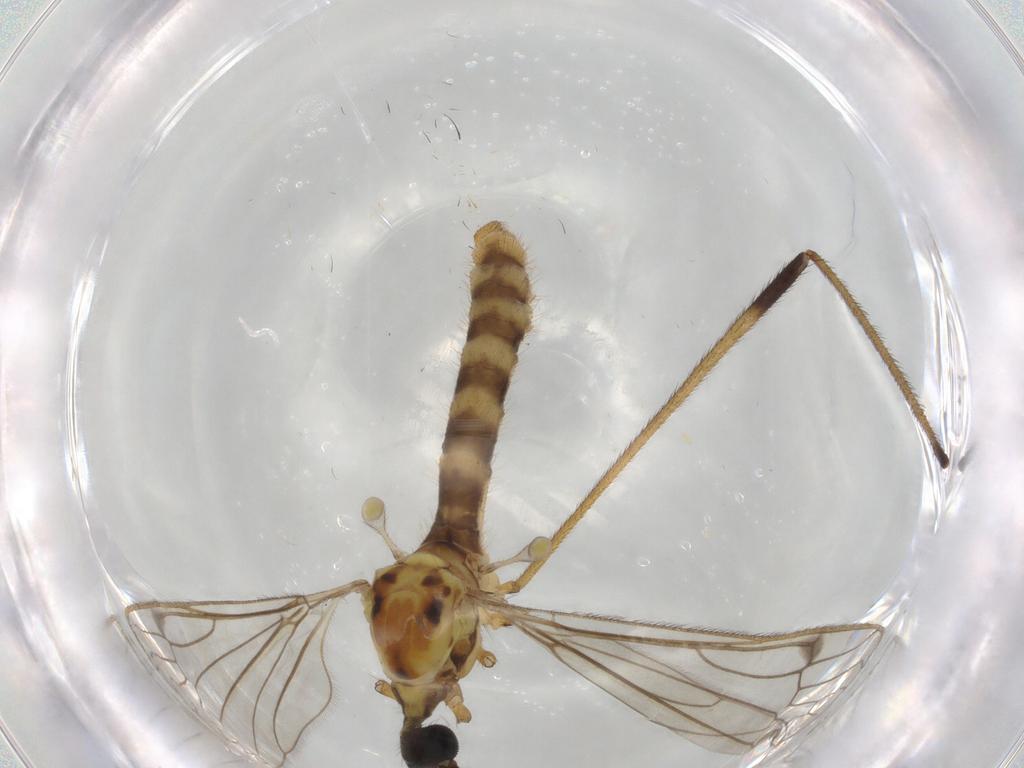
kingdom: Animalia
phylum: Arthropoda
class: Insecta
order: Diptera
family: Limoniidae
